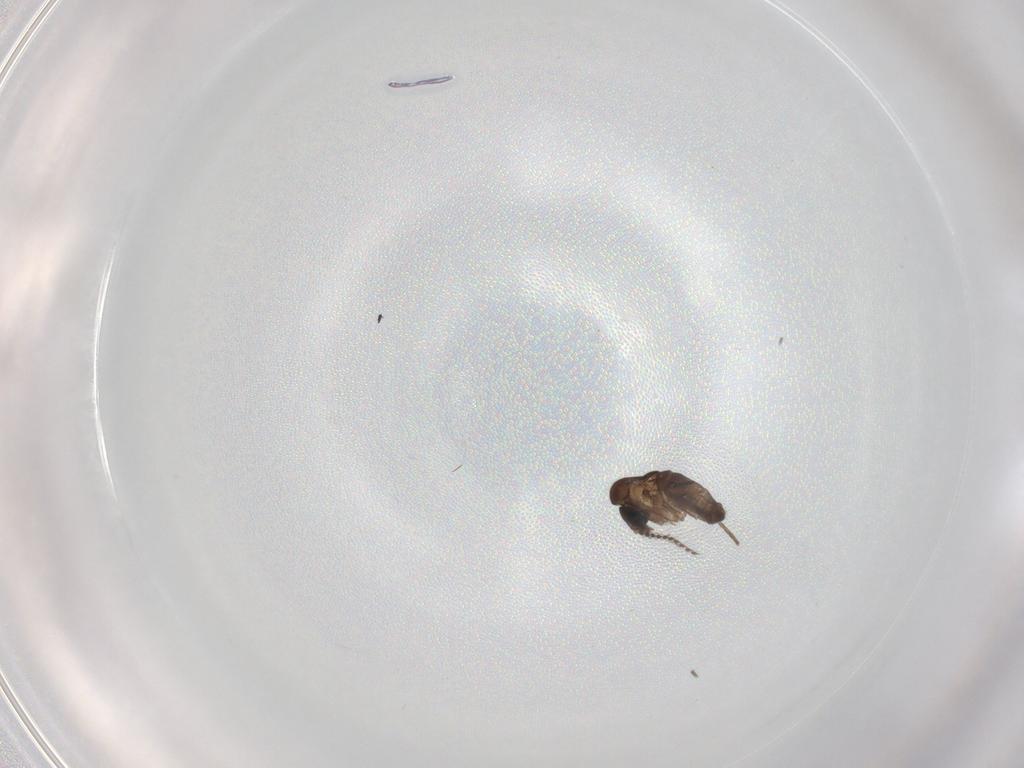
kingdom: Animalia
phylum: Arthropoda
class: Insecta
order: Diptera
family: Psychodidae
